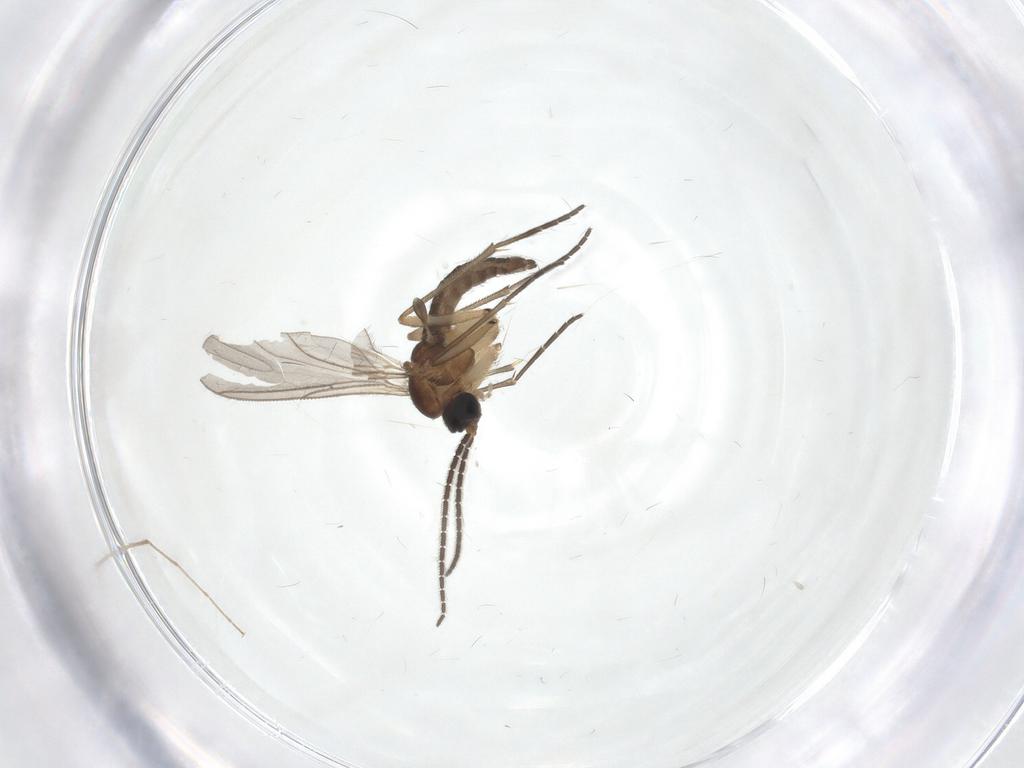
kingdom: Animalia
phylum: Arthropoda
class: Insecta
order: Diptera
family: Sciaridae
